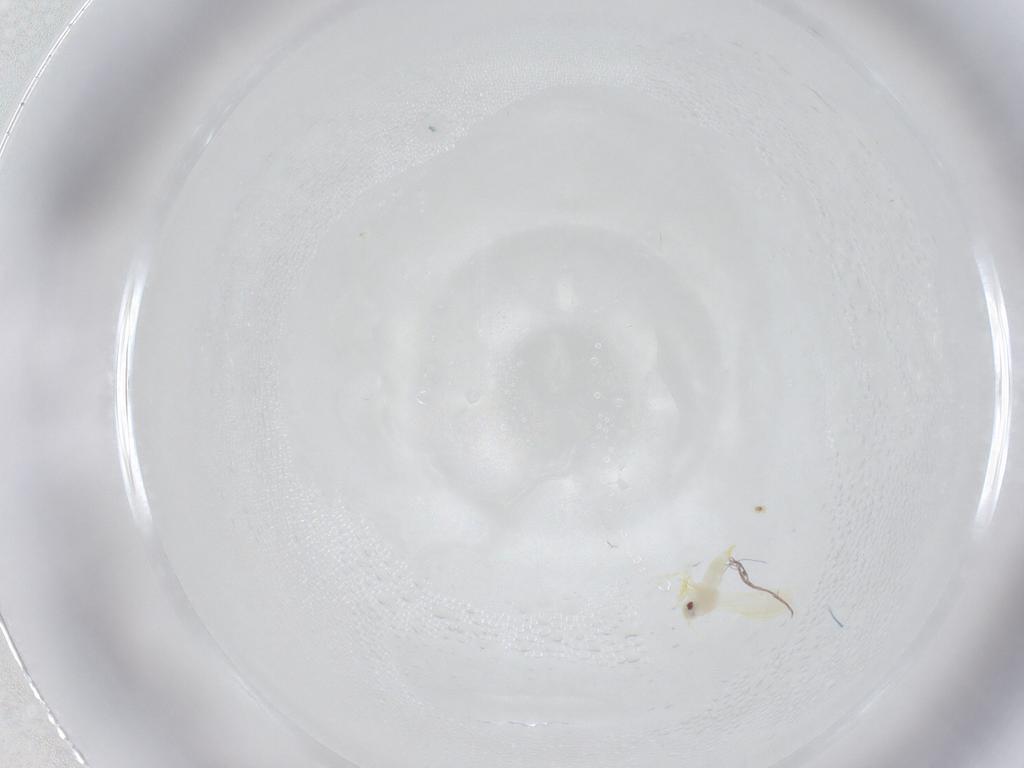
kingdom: Animalia
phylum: Arthropoda
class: Insecta
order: Hemiptera
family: Aleyrodidae
